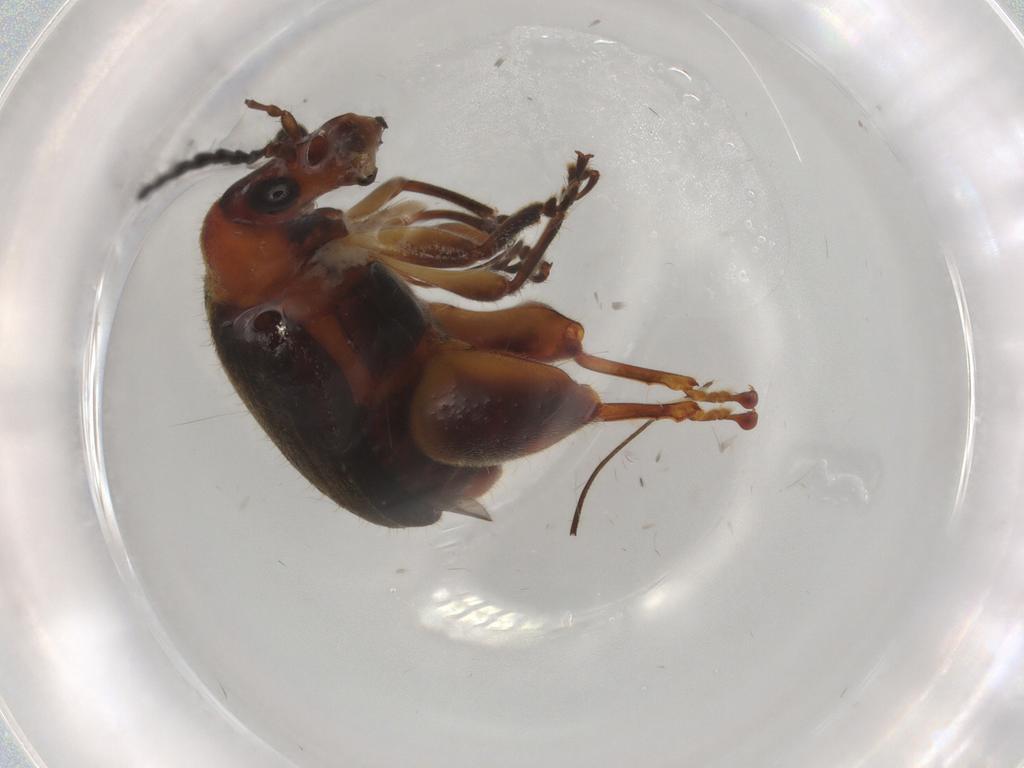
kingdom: Animalia
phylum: Arthropoda
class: Insecta
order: Coleoptera
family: Chrysomelidae
